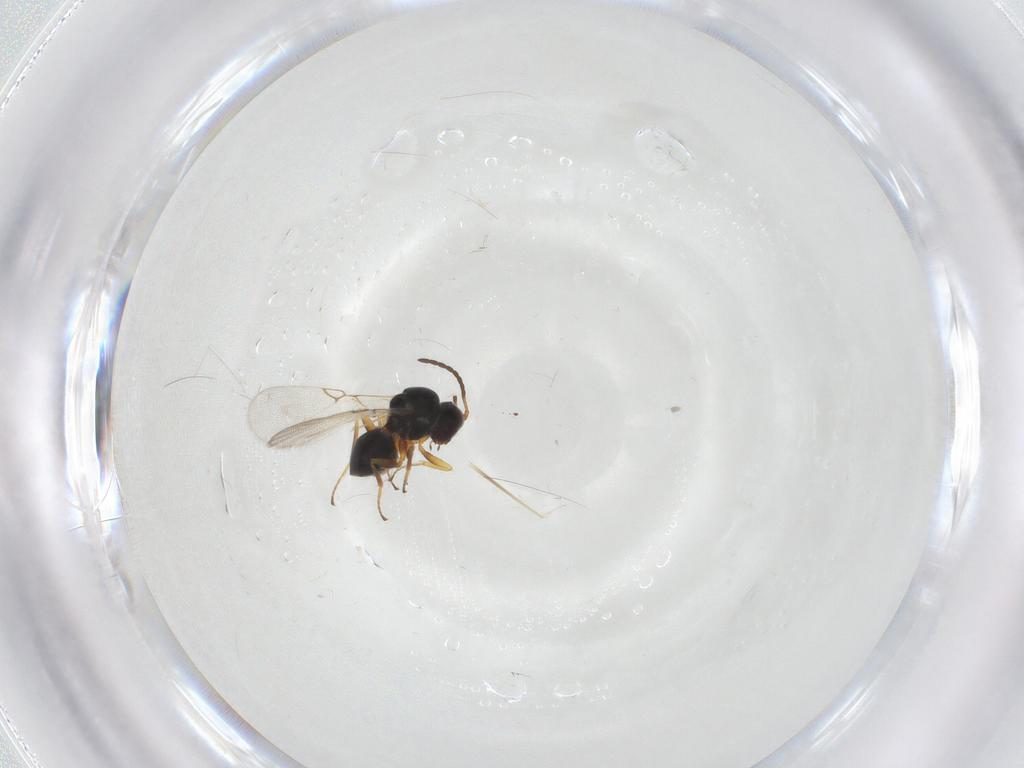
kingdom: Animalia
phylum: Arthropoda
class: Insecta
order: Hymenoptera
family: Figitidae
